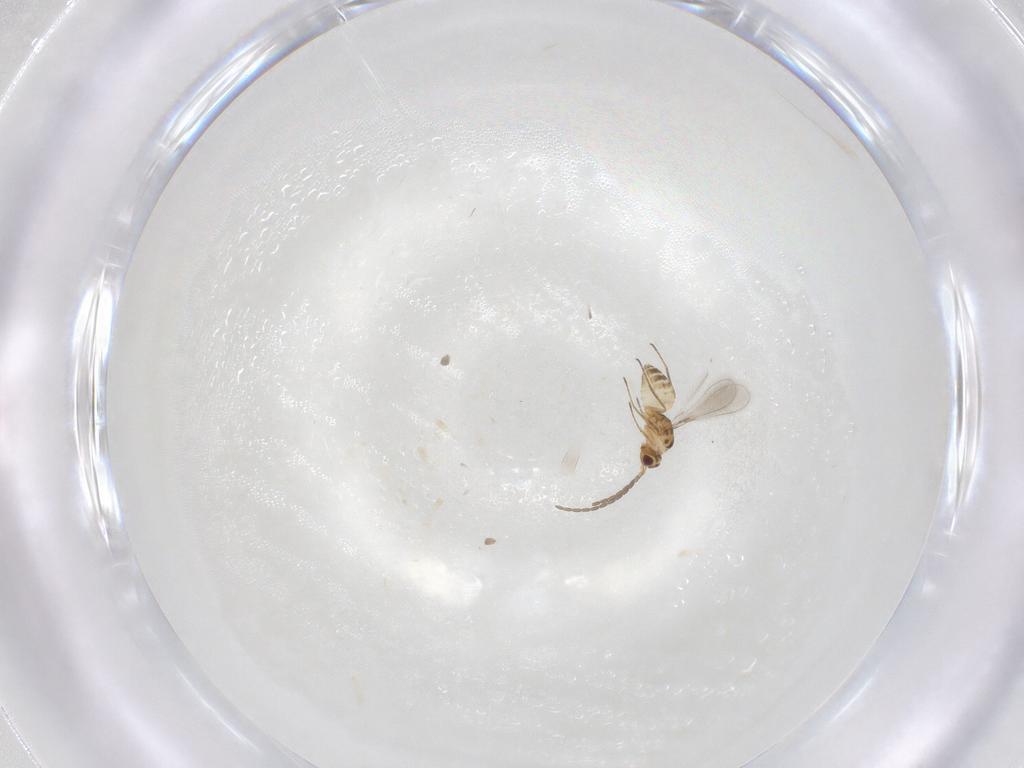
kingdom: Animalia
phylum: Arthropoda
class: Insecta
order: Hymenoptera
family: Mymaridae
